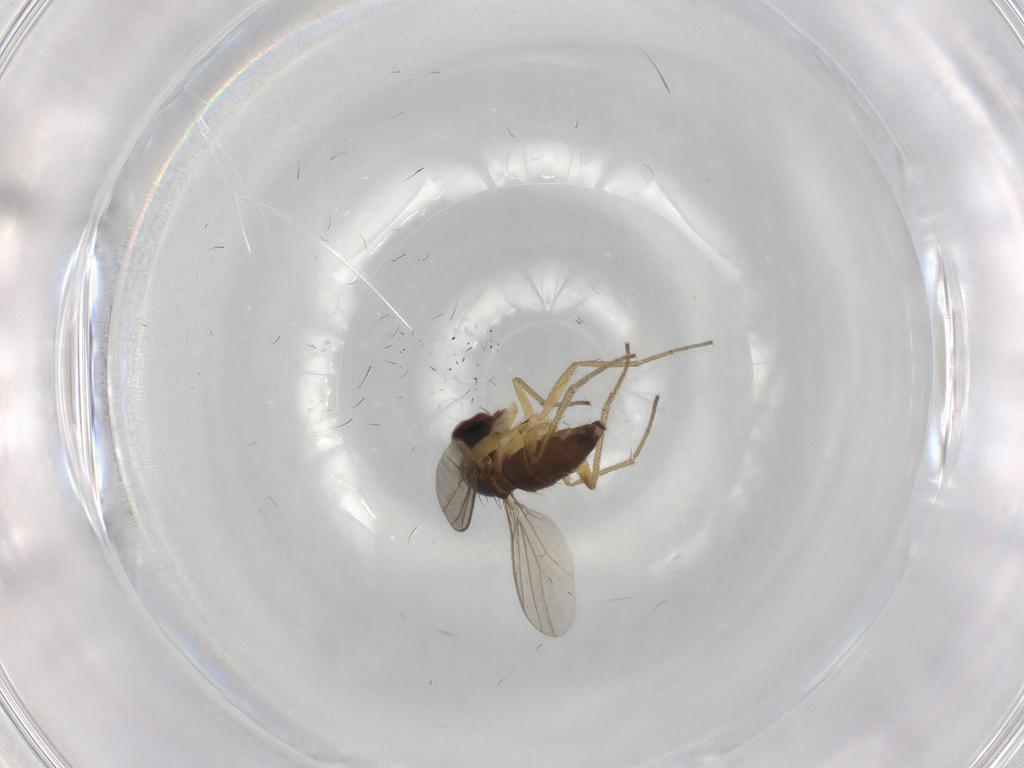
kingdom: Animalia
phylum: Arthropoda
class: Insecta
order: Diptera
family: Dolichopodidae
